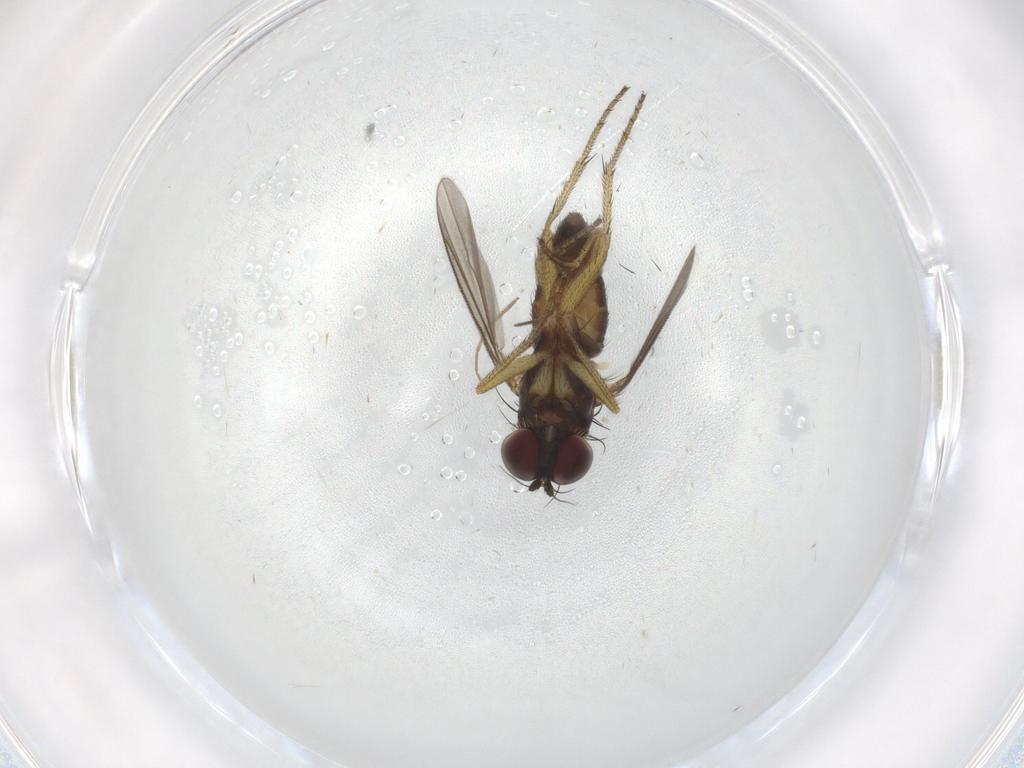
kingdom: Animalia
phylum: Arthropoda
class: Insecta
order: Diptera
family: Dolichopodidae
